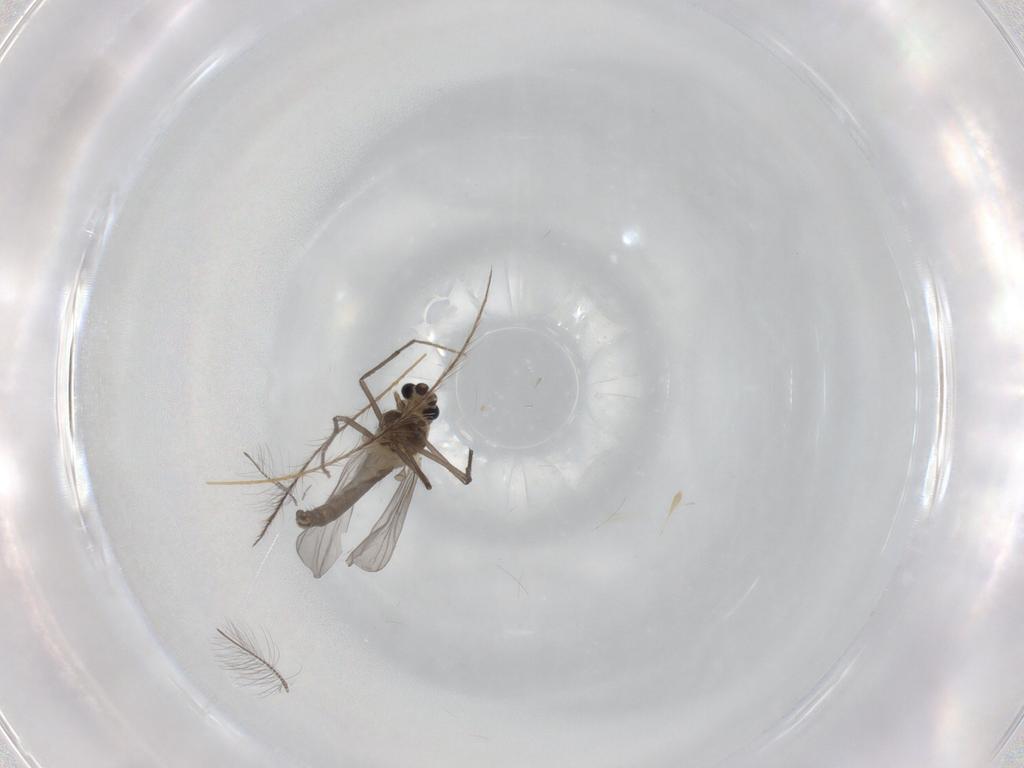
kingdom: Animalia
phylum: Arthropoda
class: Insecta
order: Diptera
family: Chironomidae
